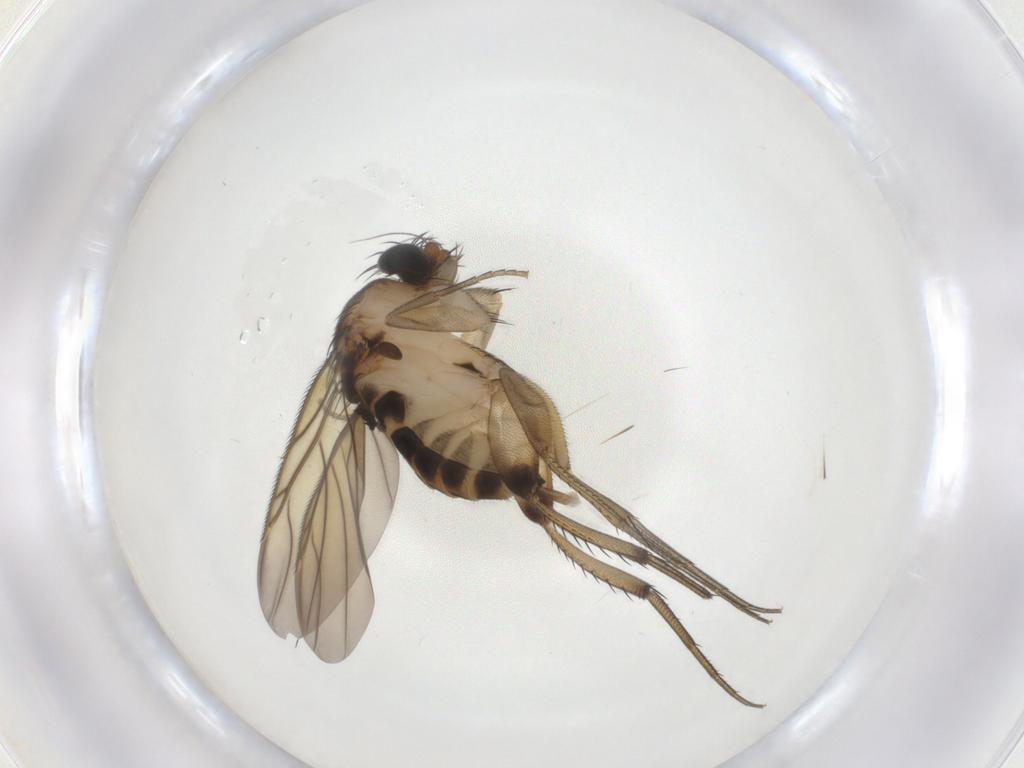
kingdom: Animalia
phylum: Arthropoda
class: Insecta
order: Diptera
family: Phoridae
